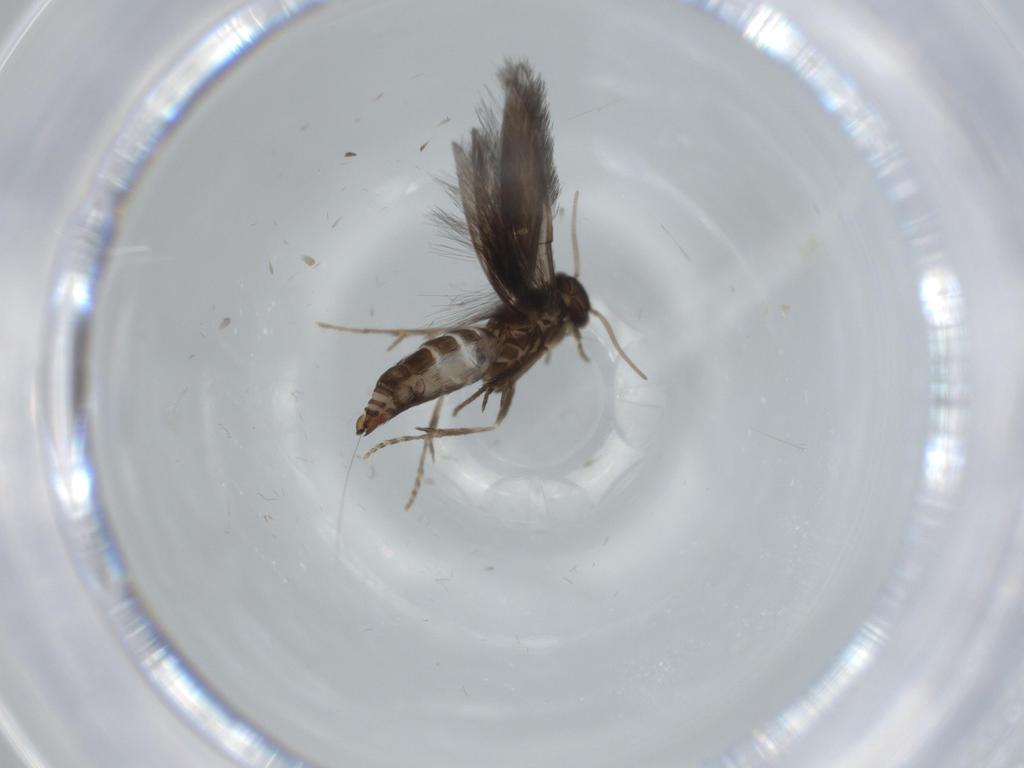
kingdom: Animalia
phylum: Arthropoda
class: Insecta
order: Trichoptera
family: Hydroptilidae
